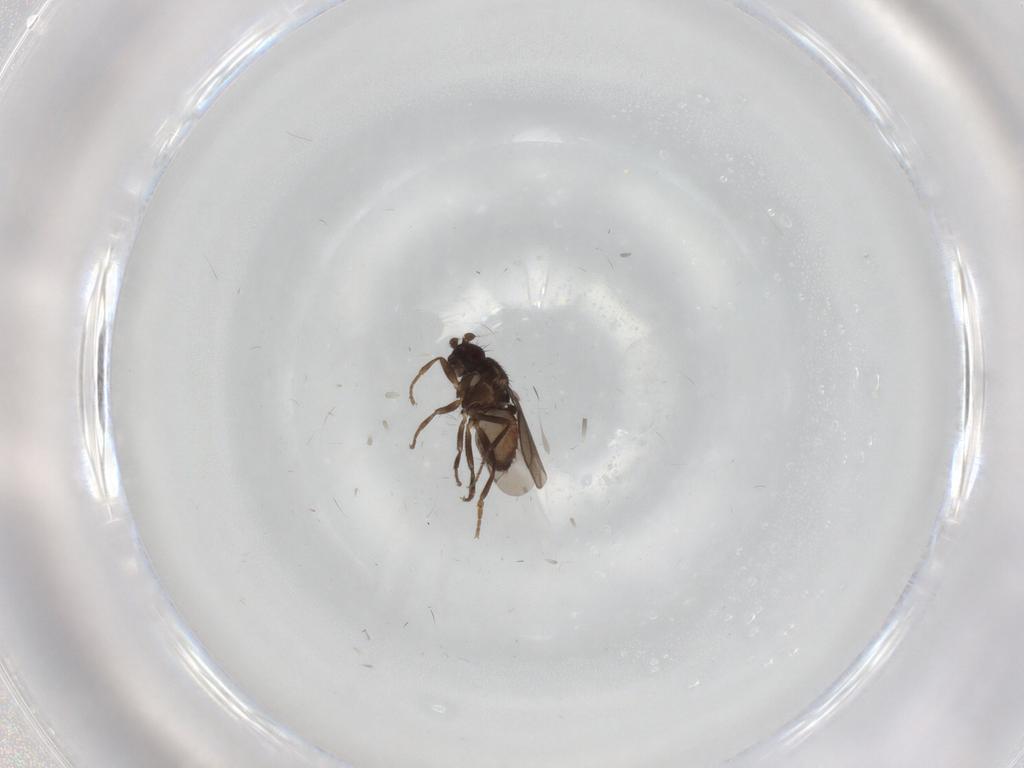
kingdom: Animalia
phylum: Arthropoda
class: Insecta
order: Diptera
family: Sphaeroceridae
